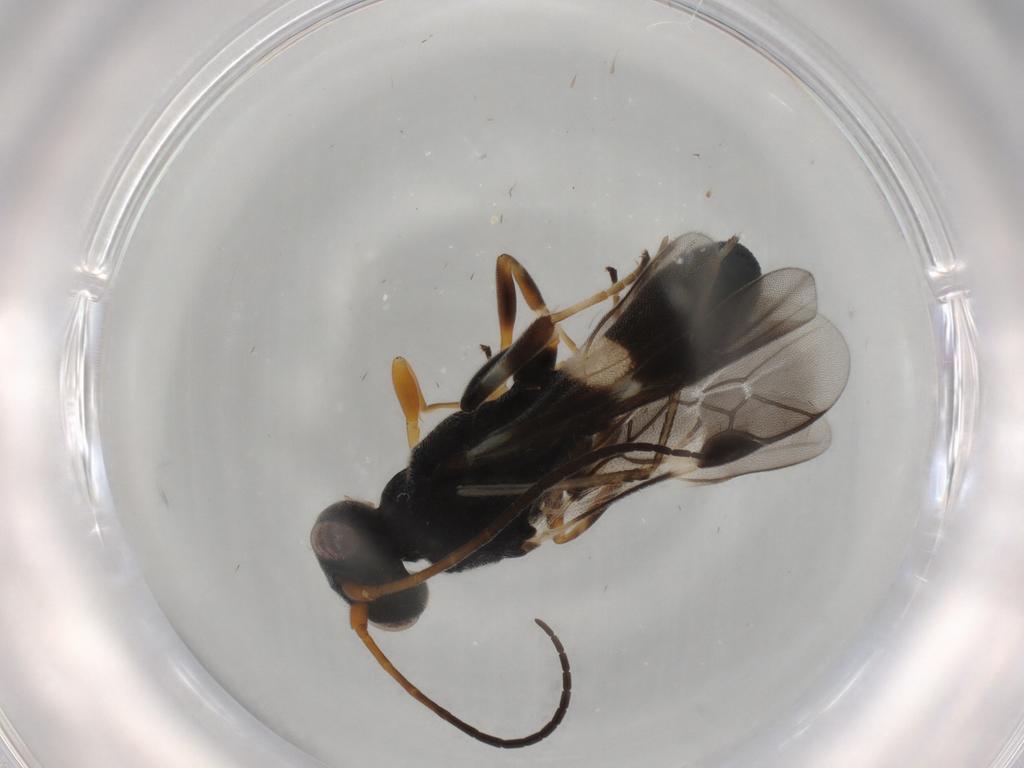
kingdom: Animalia
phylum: Arthropoda
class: Insecta
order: Hymenoptera
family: Braconidae
